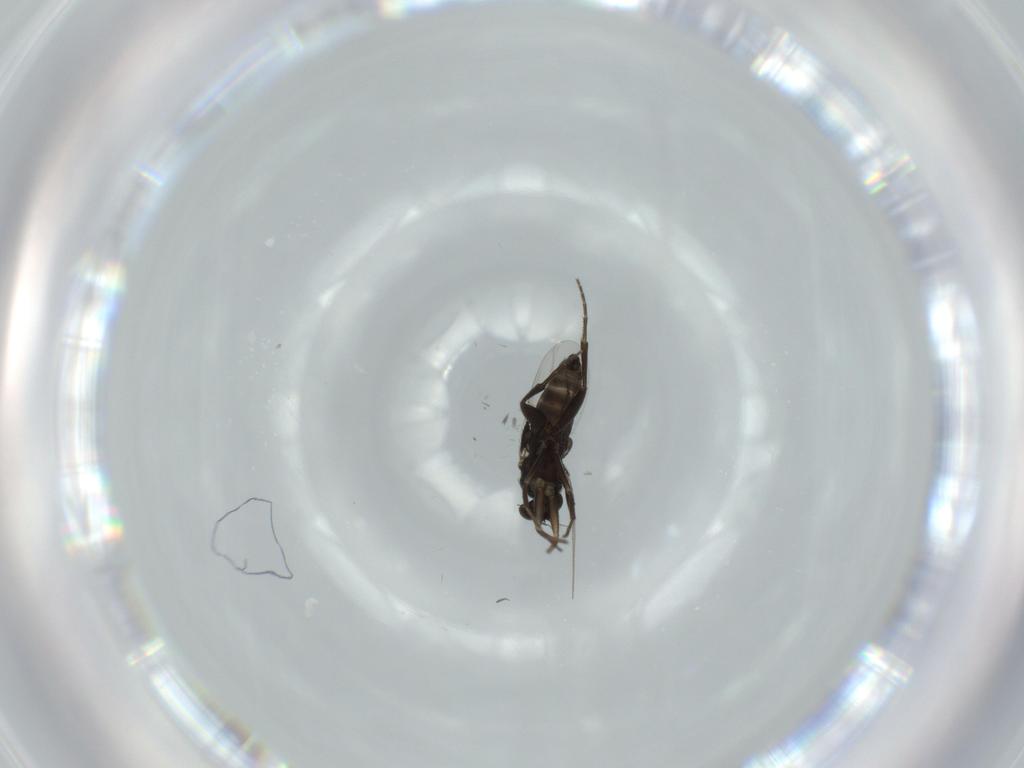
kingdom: Animalia
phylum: Arthropoda
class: Insecta
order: Diptera
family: Phoridae
